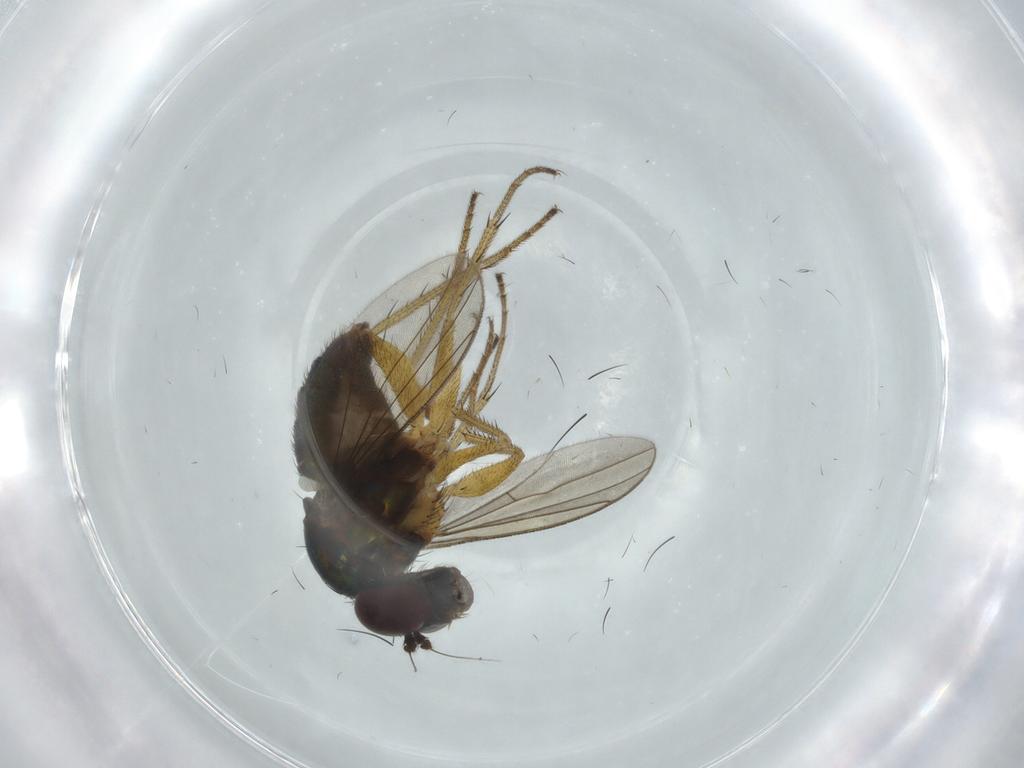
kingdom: Animalia
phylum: Arthropoda
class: Insecta
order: Diptera
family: Dolichopodidae
